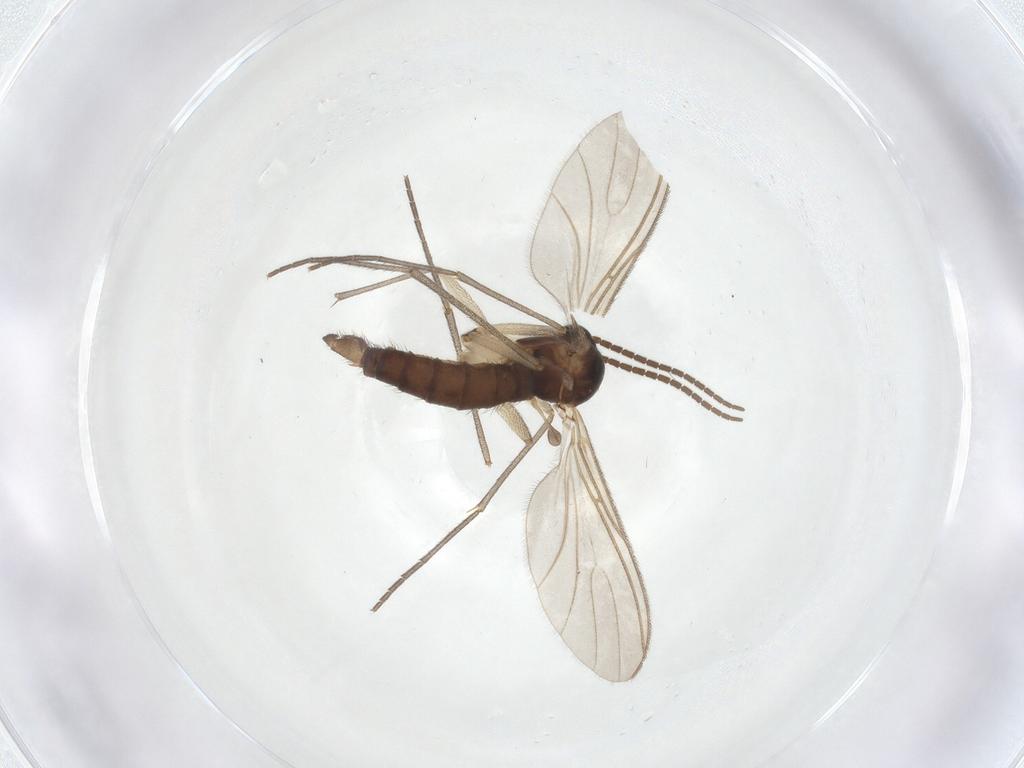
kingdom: Animalia
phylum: Arthropoda
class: Insecta
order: Diptera
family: Sciaridae
